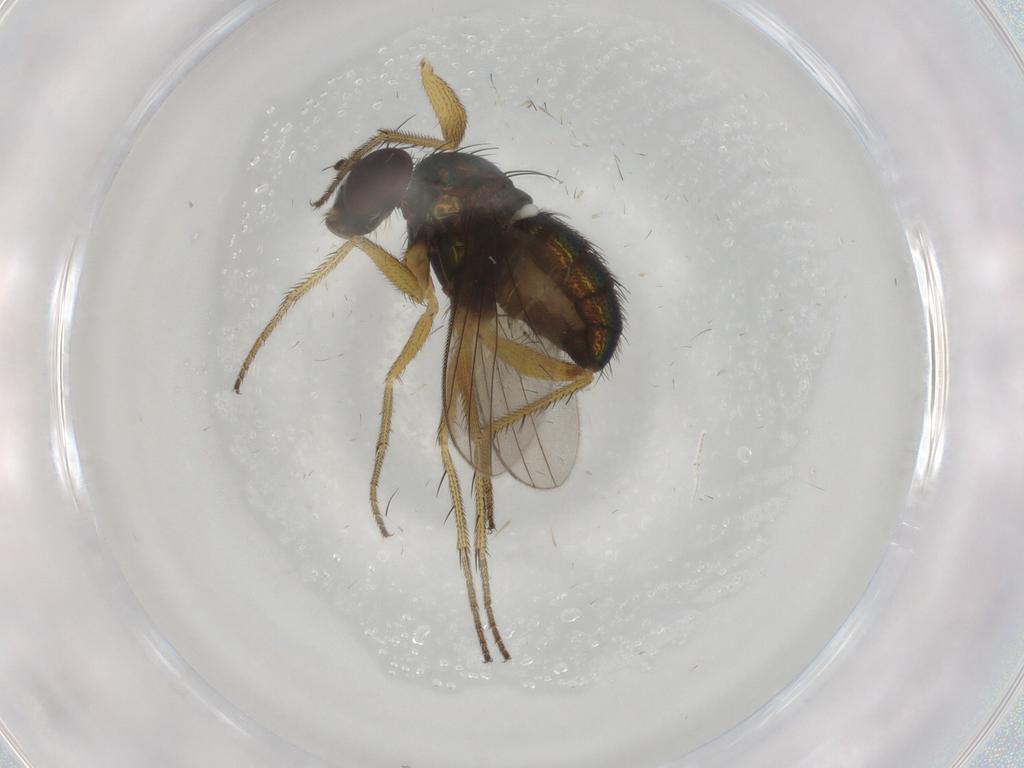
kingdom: Animalia
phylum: Arthropoda
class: Insecta
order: Diptera
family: Dolichopodidae
